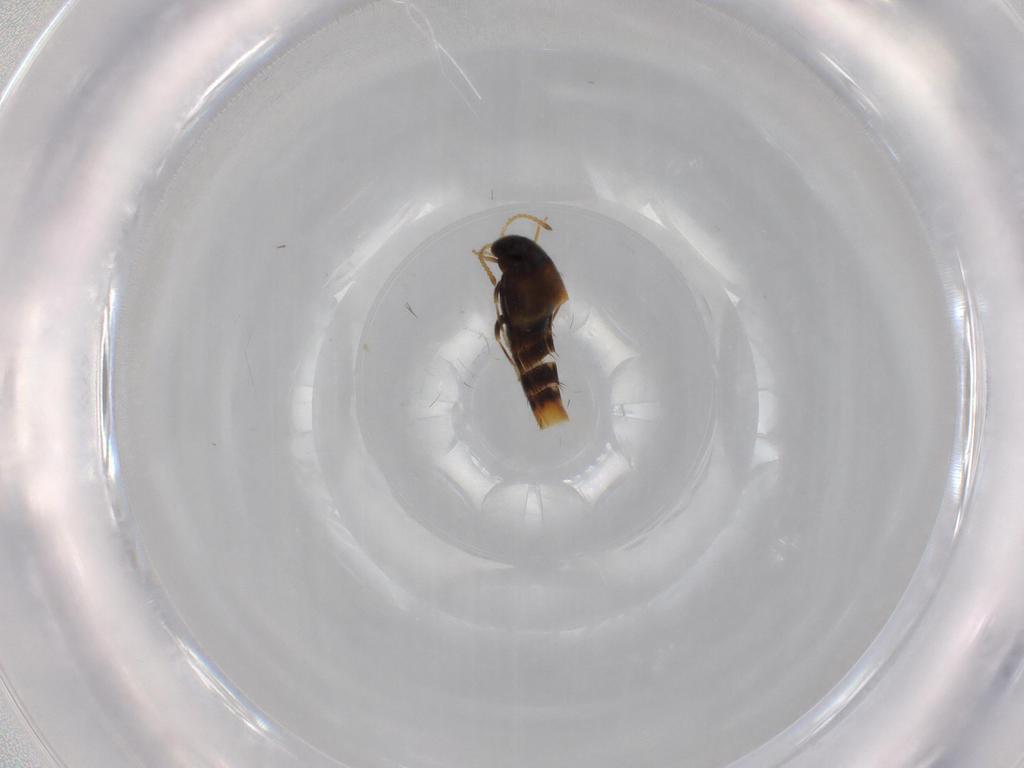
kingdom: Animalia
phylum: Arthropoda
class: Insecta
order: Coleoptera
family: Staphylinidae
